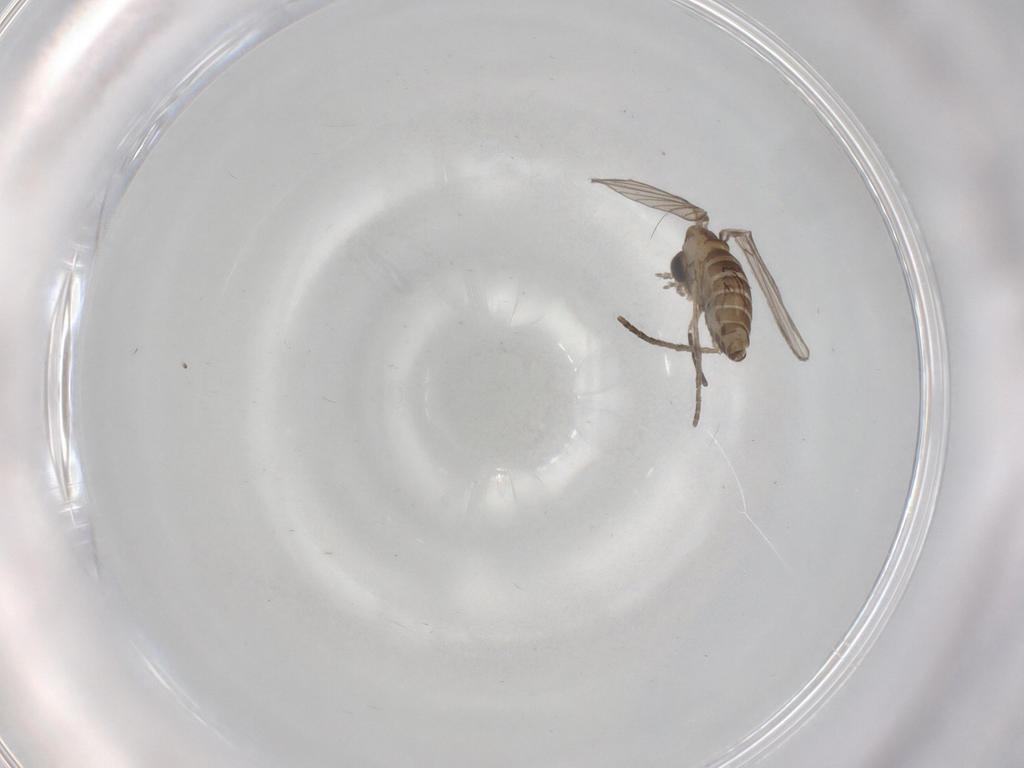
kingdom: Animalia
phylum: Arthropoda
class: Insecta
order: Diptera
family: Psychodidae
